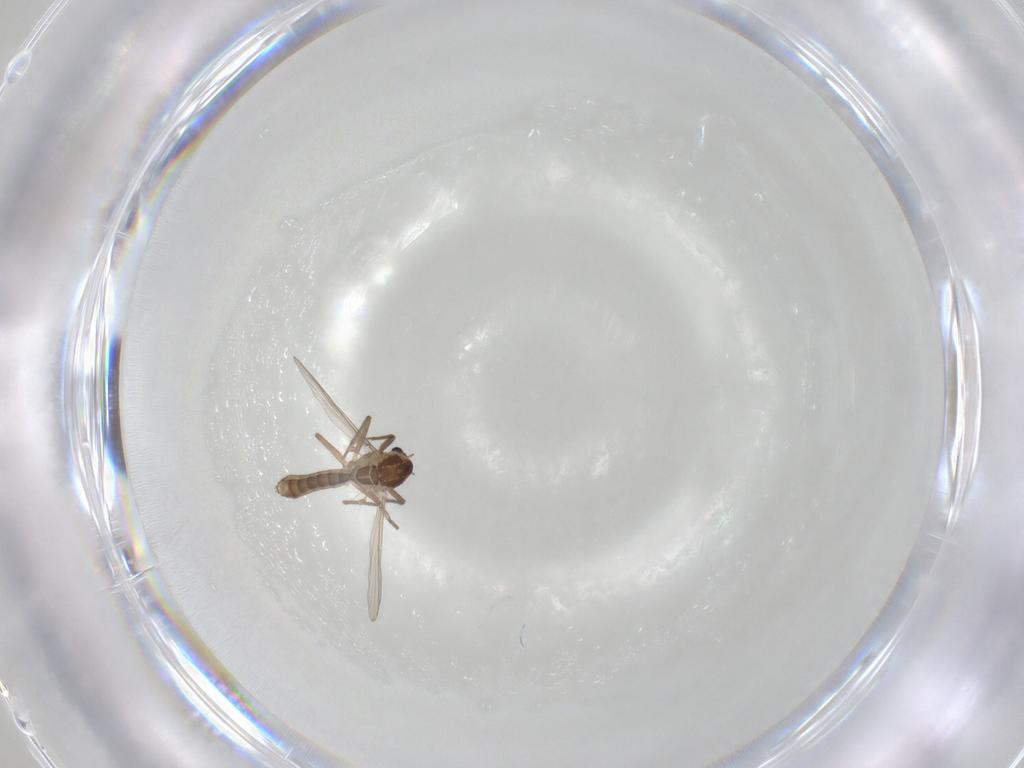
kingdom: Animalia
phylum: Arthropoda
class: Insecta
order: Diptera
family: Chironomidae
